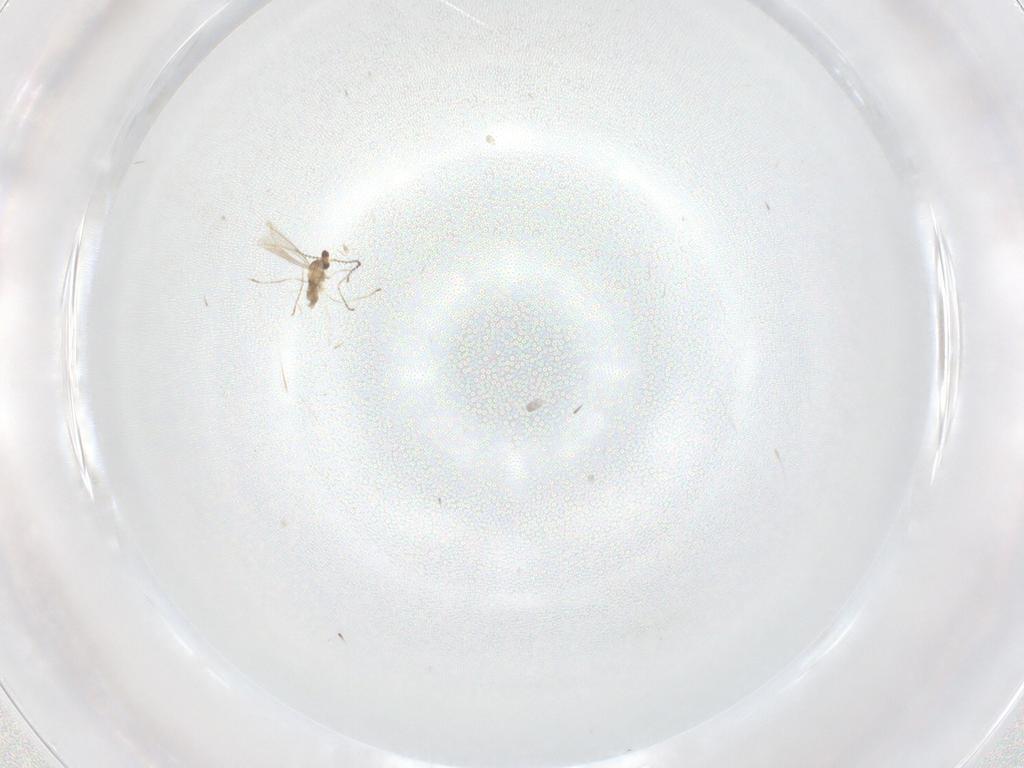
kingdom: Animalia
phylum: Arthropoda
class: Insecta
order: Diptera
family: Cecidomyiidae
